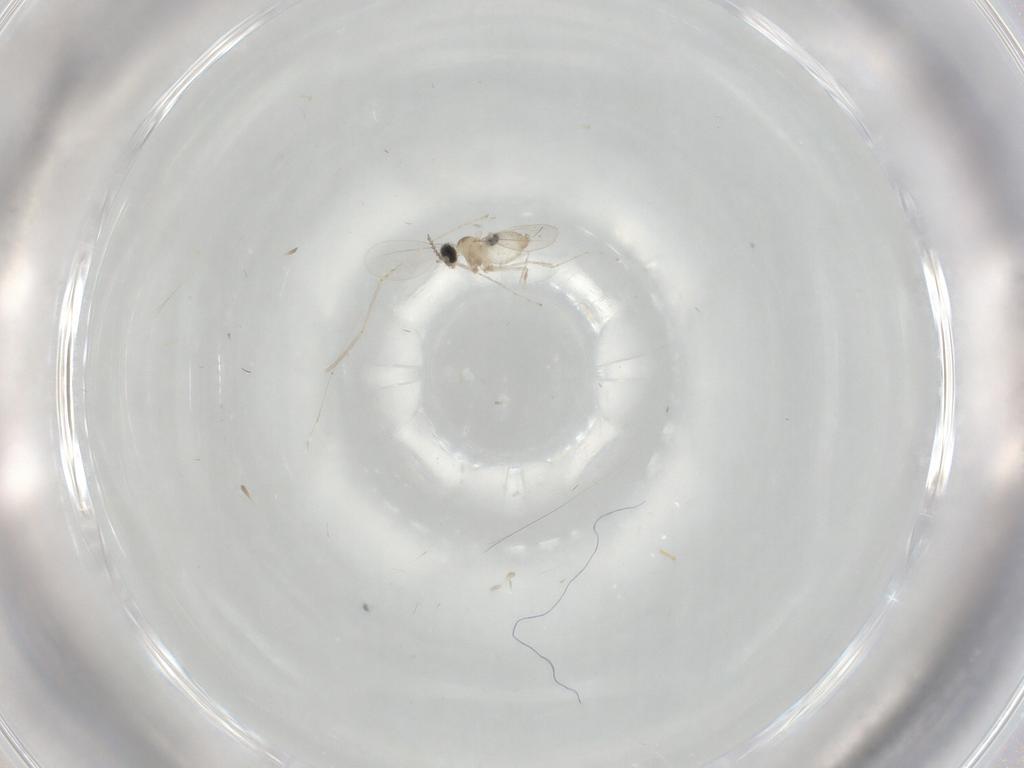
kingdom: Animalia
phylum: Arthropoda
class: Insecta
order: Diptera
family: Cecidomyiidae
